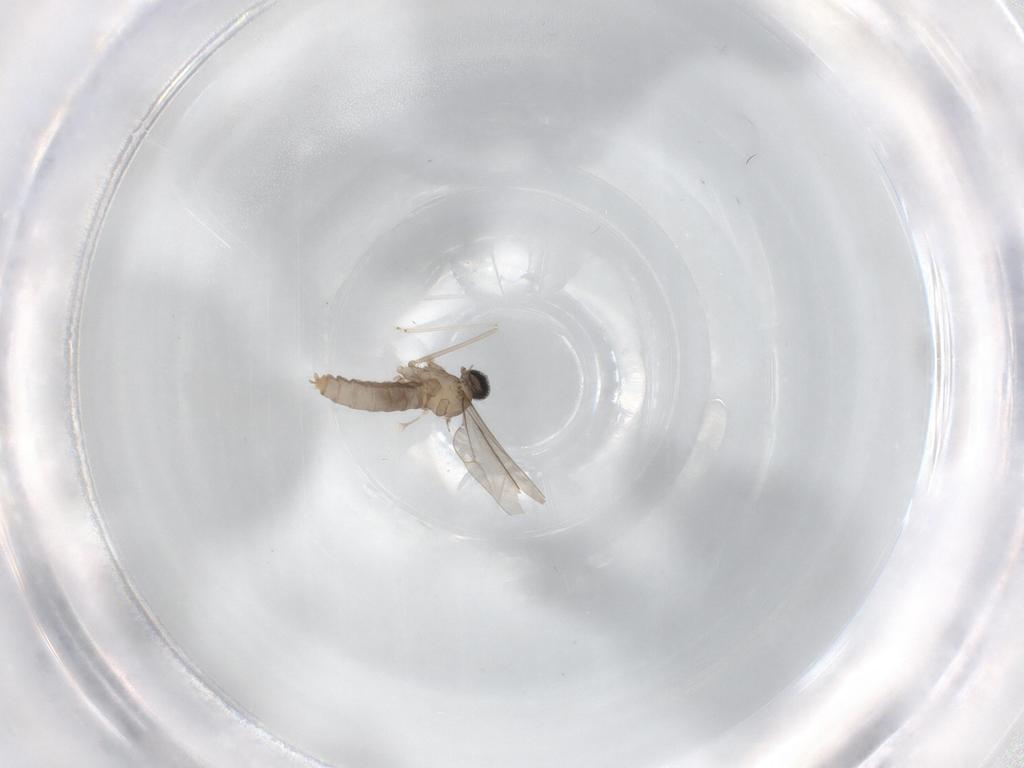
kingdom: Animalia
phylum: Arthropoda
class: Insecta
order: Diptera
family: Chironomidae
